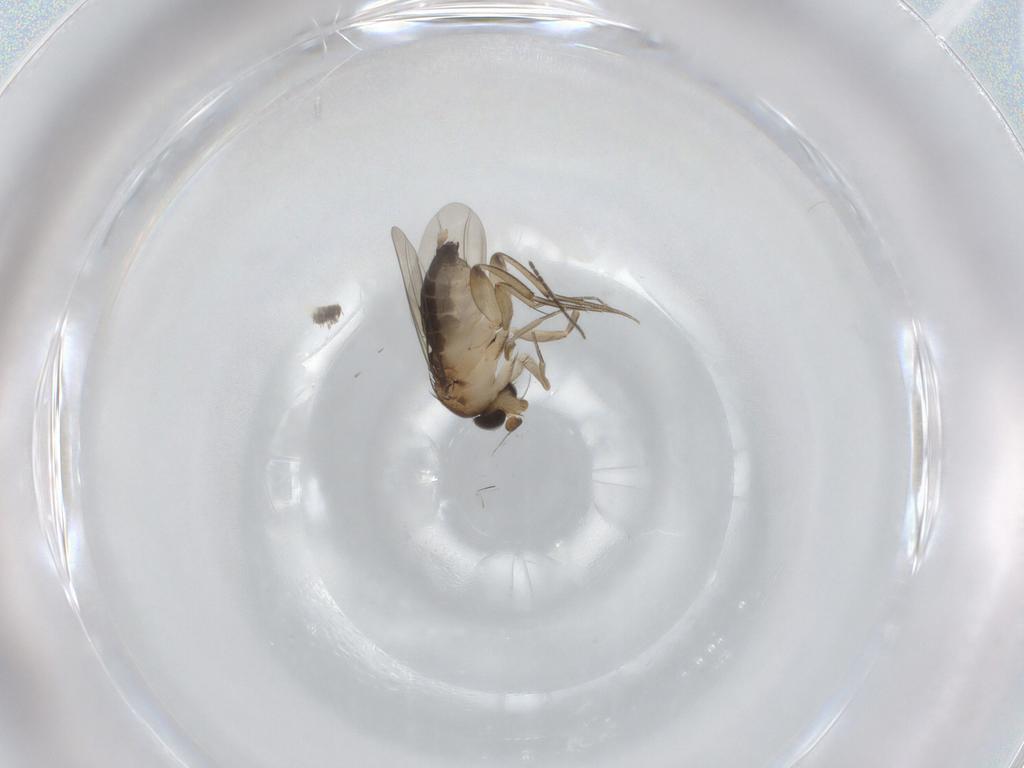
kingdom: Animalia
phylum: Arthropoda
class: Insecta
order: Diptera
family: Phoridae
